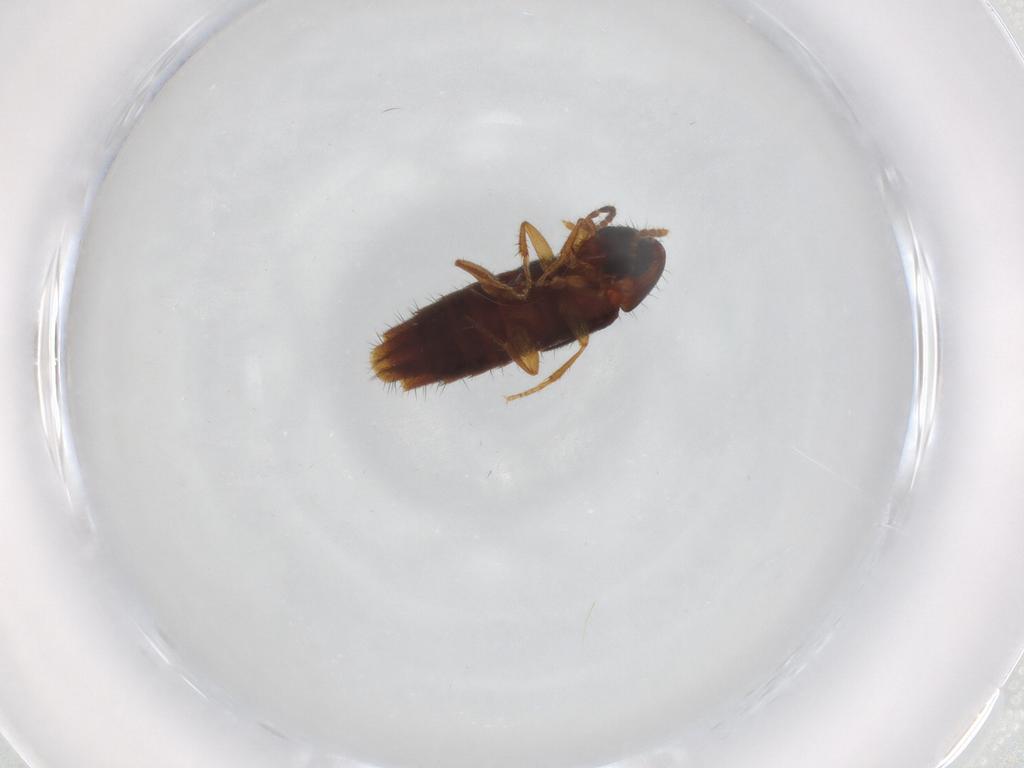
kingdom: Animalia
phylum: Arthropoda
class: Insecta
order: Coleoptera
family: Staphylinidae
